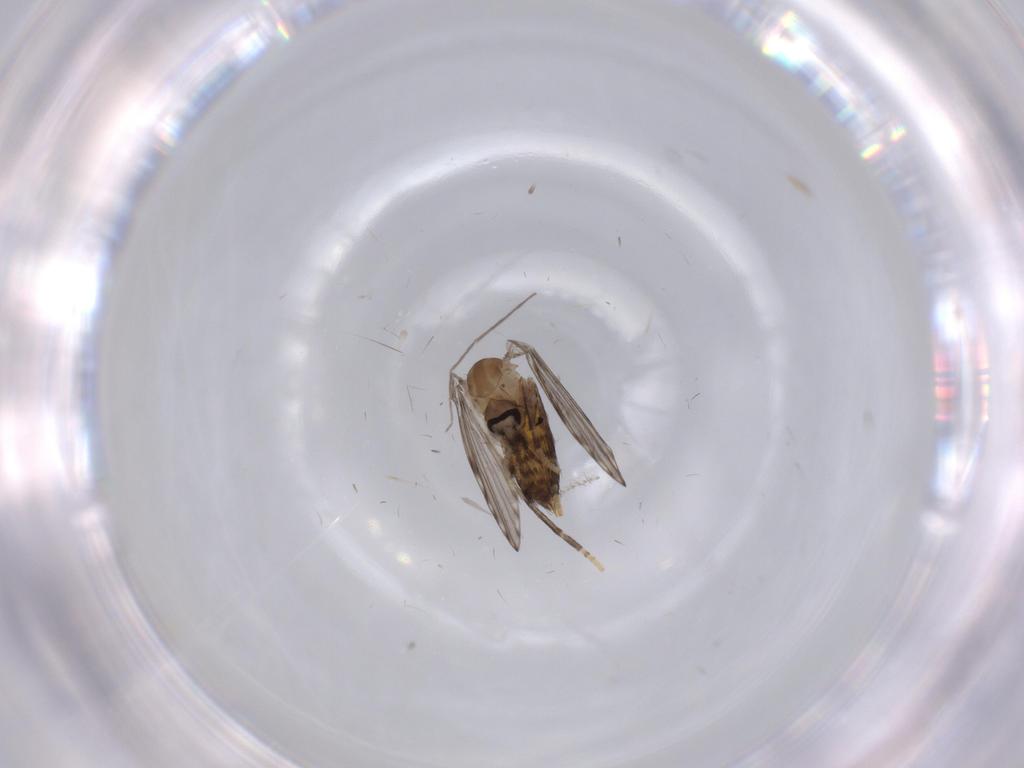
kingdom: Animalia
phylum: Arthropoda
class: Insecta
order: Diptera
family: Psychodidae
